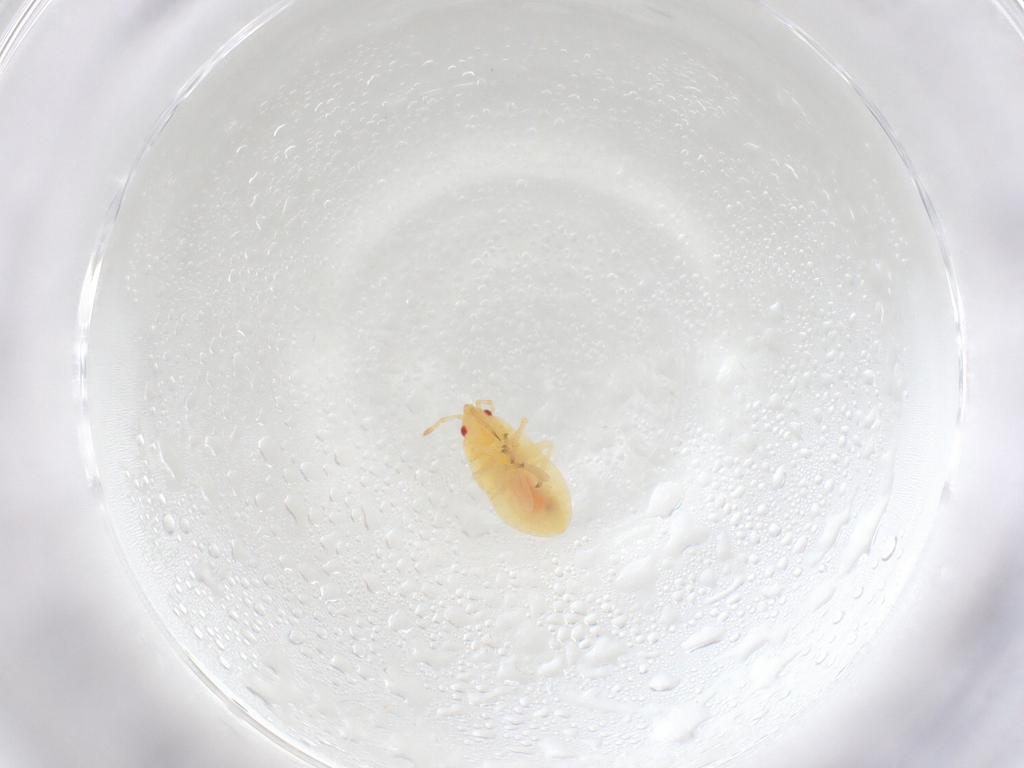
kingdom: Animalia
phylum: Arthropoda
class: Insecta
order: Hemiptera
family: Anthocoridae
